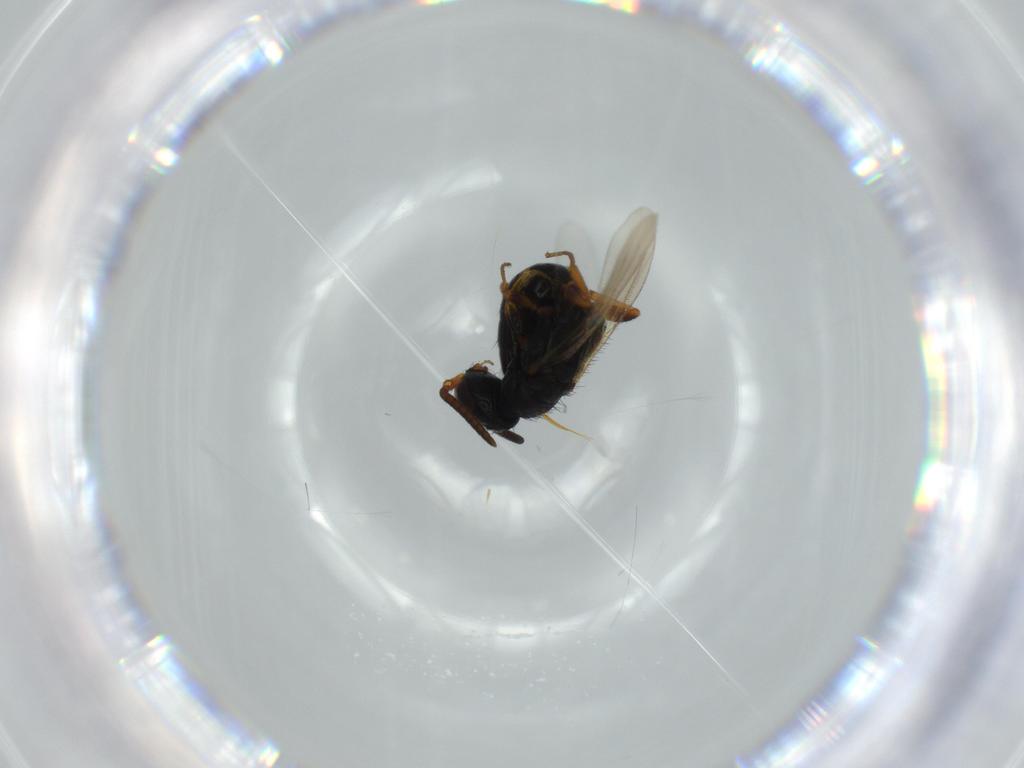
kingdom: Animalia
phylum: Arthropoda
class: Insecta
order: Hymenoptera
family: Bethylidae
